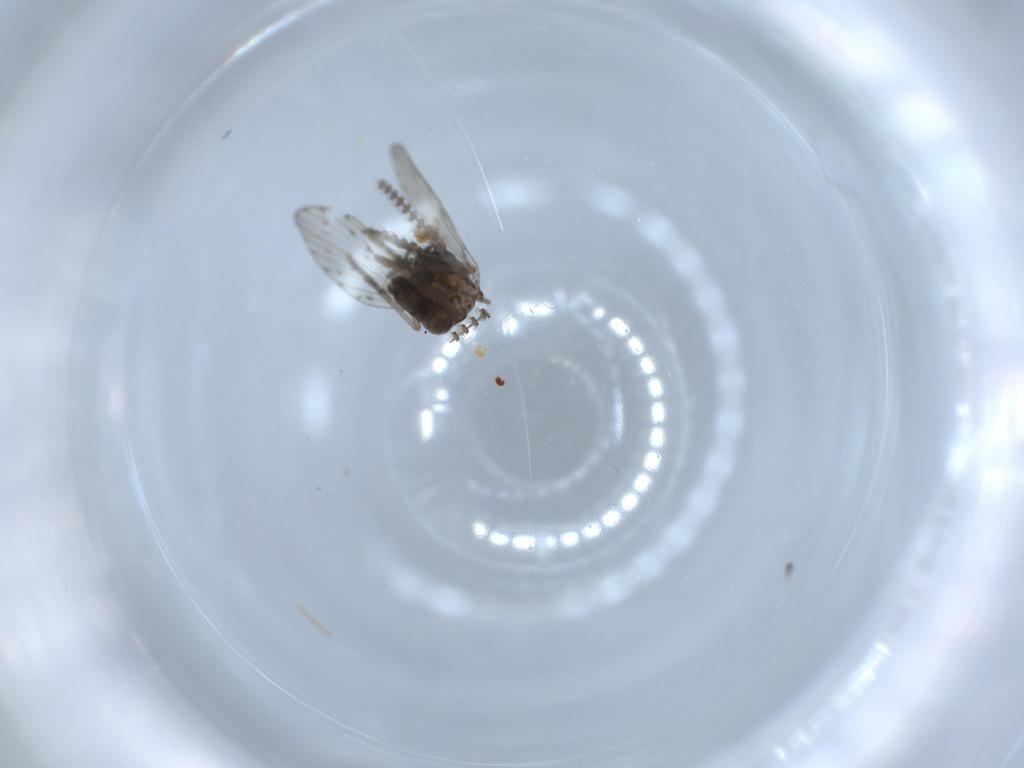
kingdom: Animalia
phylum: Arthropoda
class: Insecta
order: Diptera
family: Psychodidae
